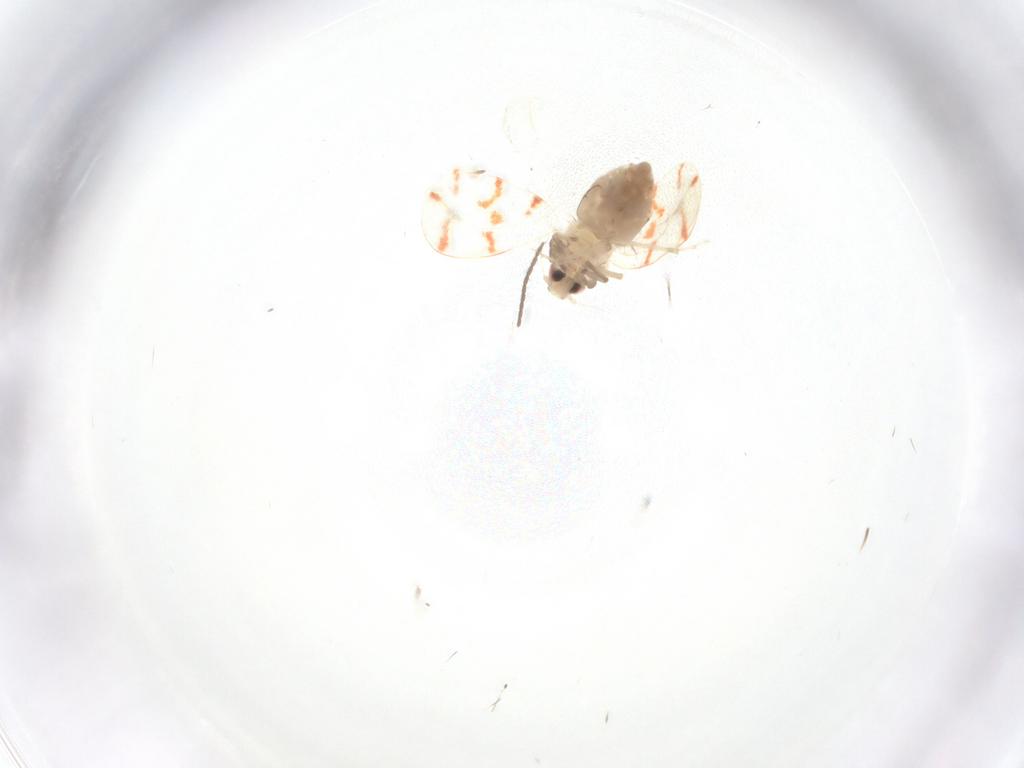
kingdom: Animalia
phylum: Arthropoda
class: Insecta
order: Hemiptera
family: Aleyrodidae
